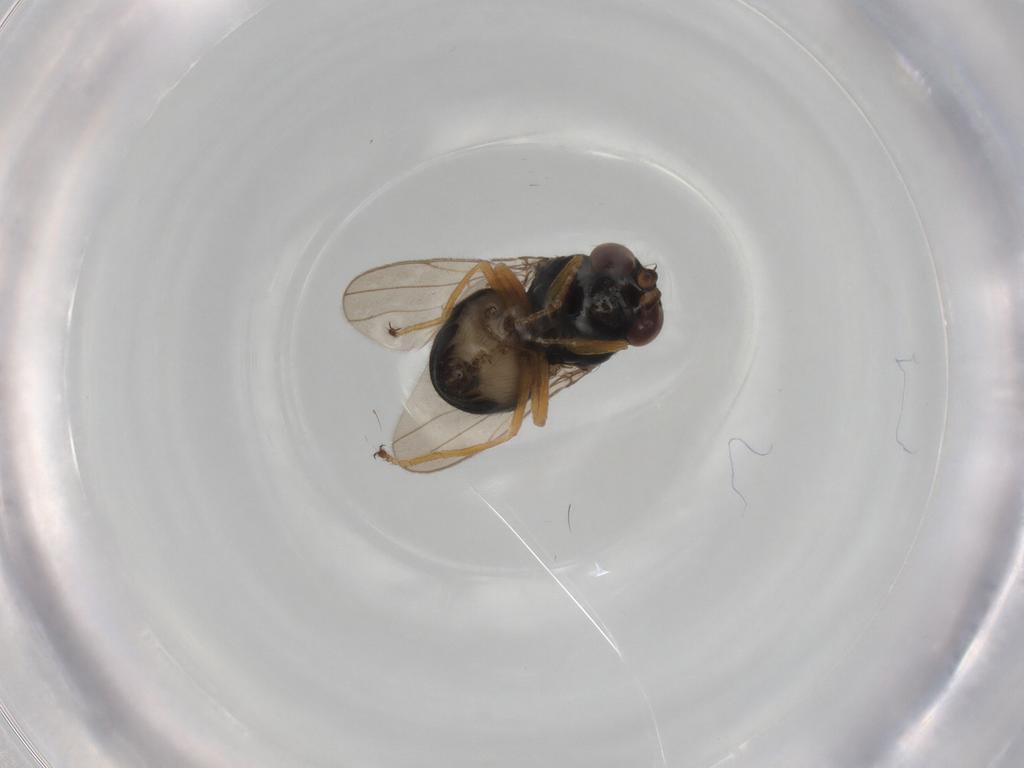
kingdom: Animalia
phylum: Arthropoda
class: Insecta
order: Diptera
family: Ephydridae
